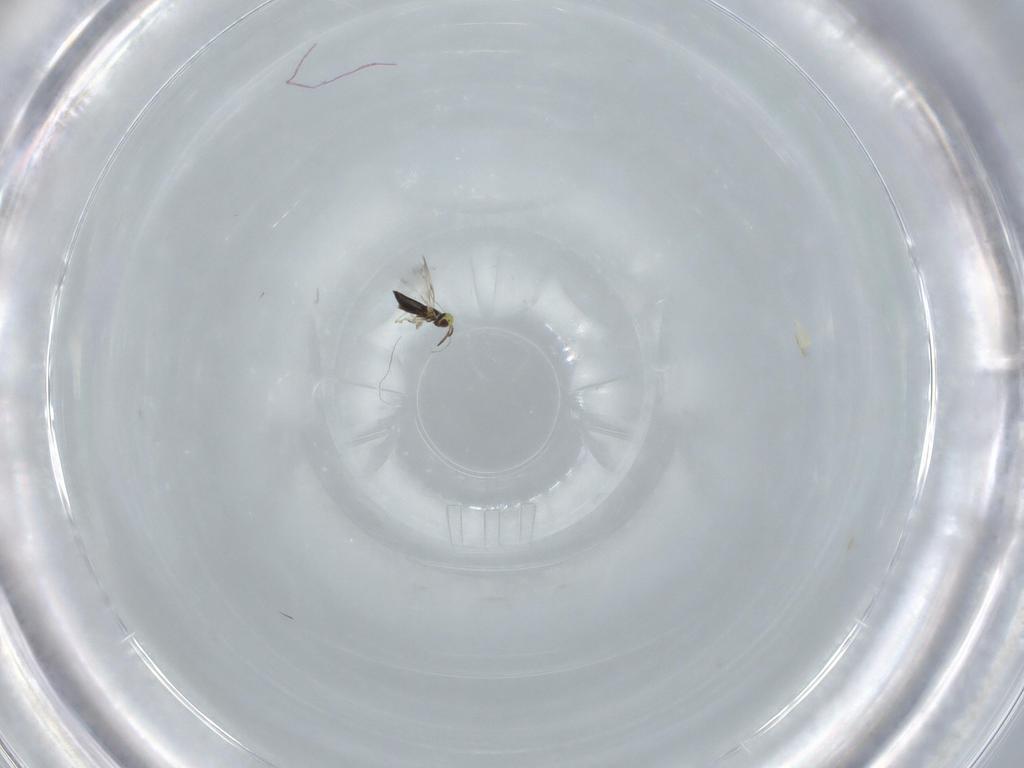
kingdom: Animalia
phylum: Arthropoda
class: Insecta
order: Hymenoptera
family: Signiphoridae
